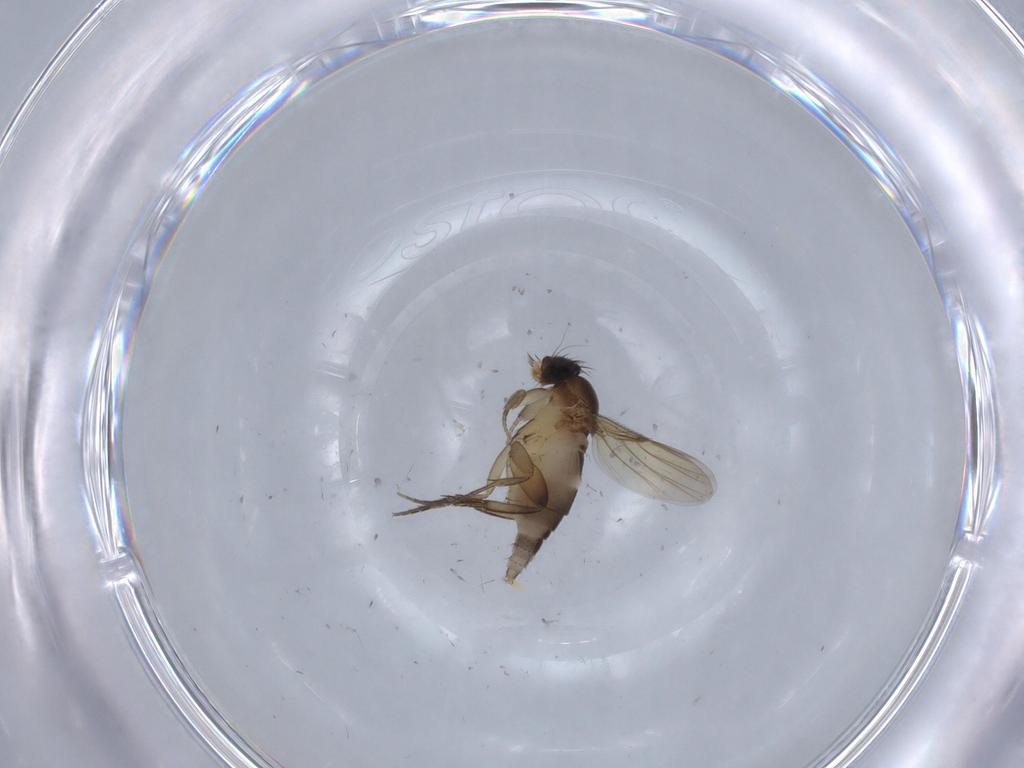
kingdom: Animalia
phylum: Arthropoda
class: Insecta
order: Diptera
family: Phoridae
